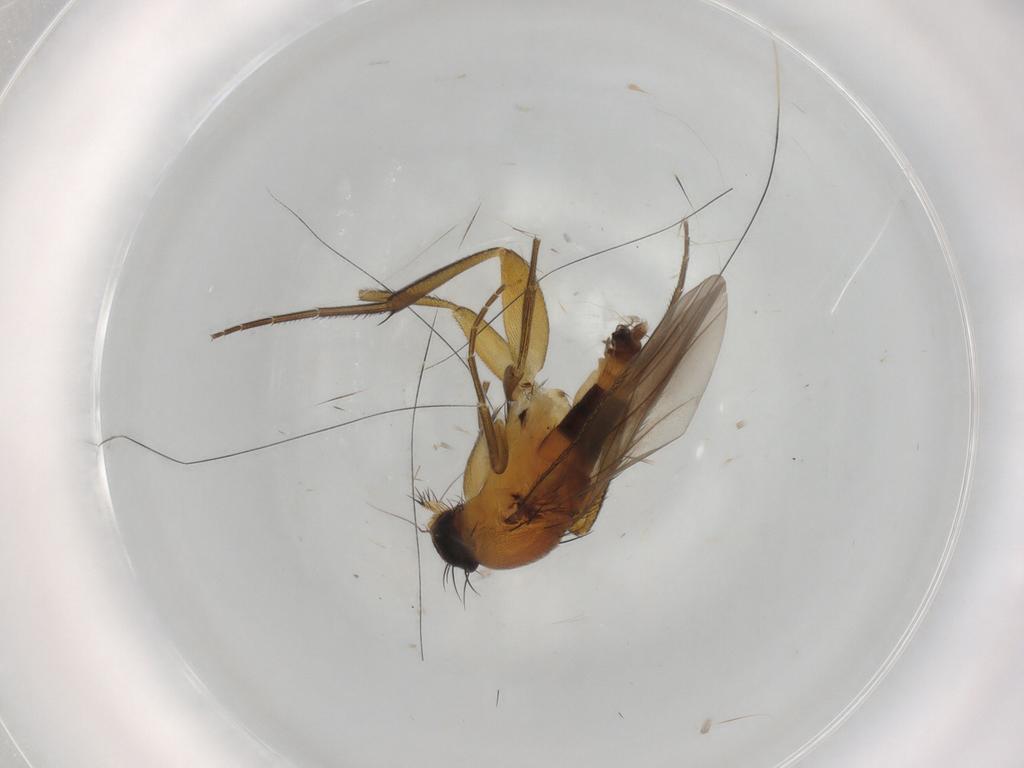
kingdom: Animalia
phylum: Arthropoda
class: Insecta
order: Diptera
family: Phoridae
